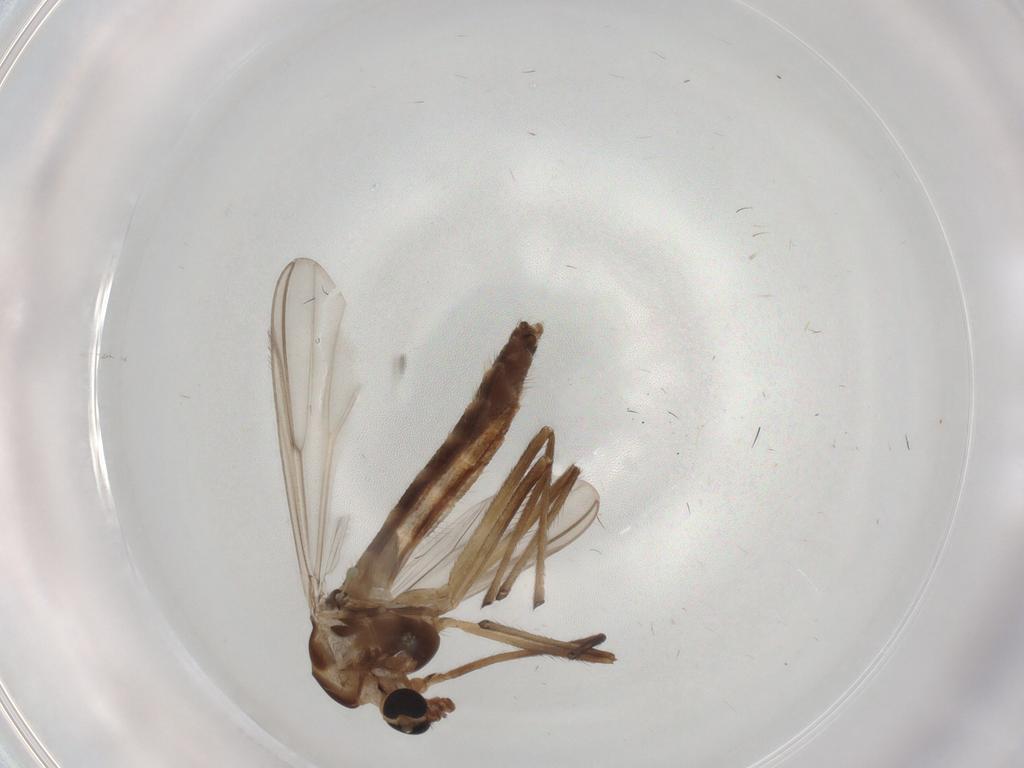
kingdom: Animalia
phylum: Arthropoda
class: Insecta
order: Diptera
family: Chironomidae
